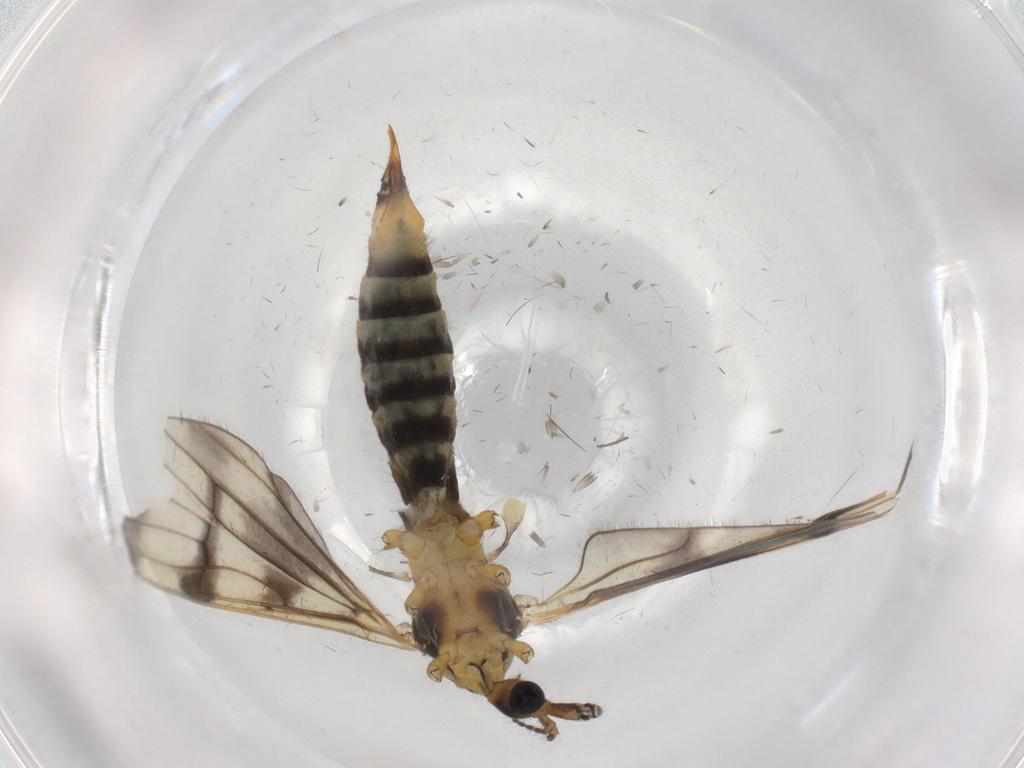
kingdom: Animalia
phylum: Arthropoda
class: Insecta
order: Diptera
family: Limoniidae
